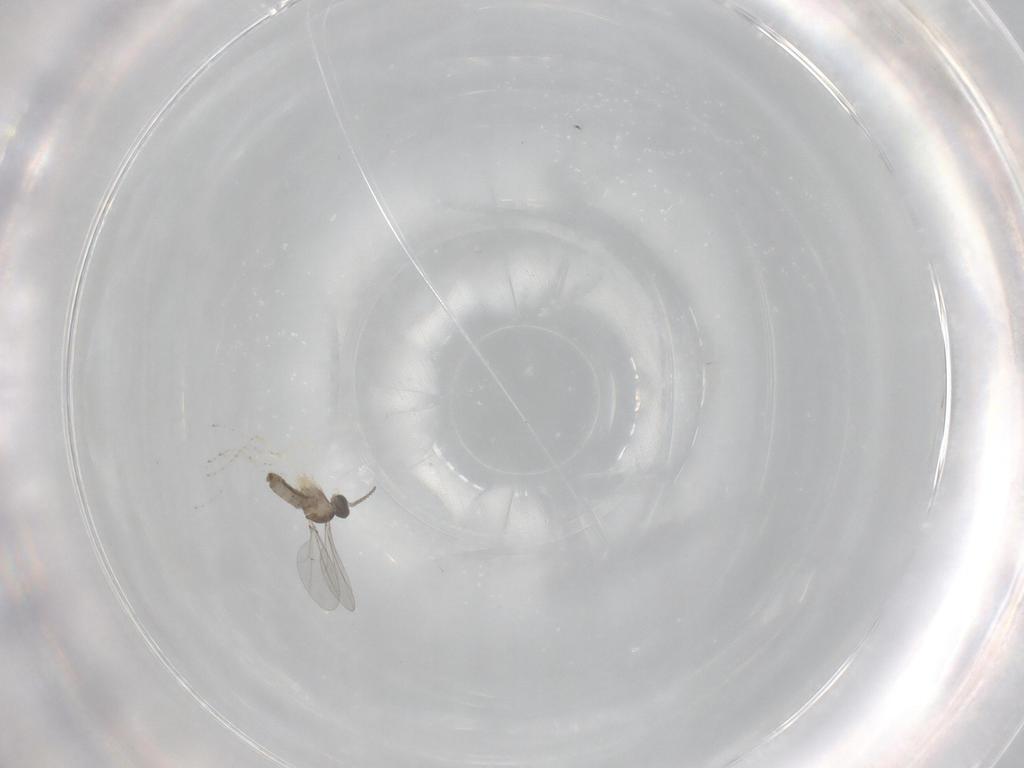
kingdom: Animalia
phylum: Arthropoda
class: Insecta
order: Diptera
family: Cecidomyiidae
